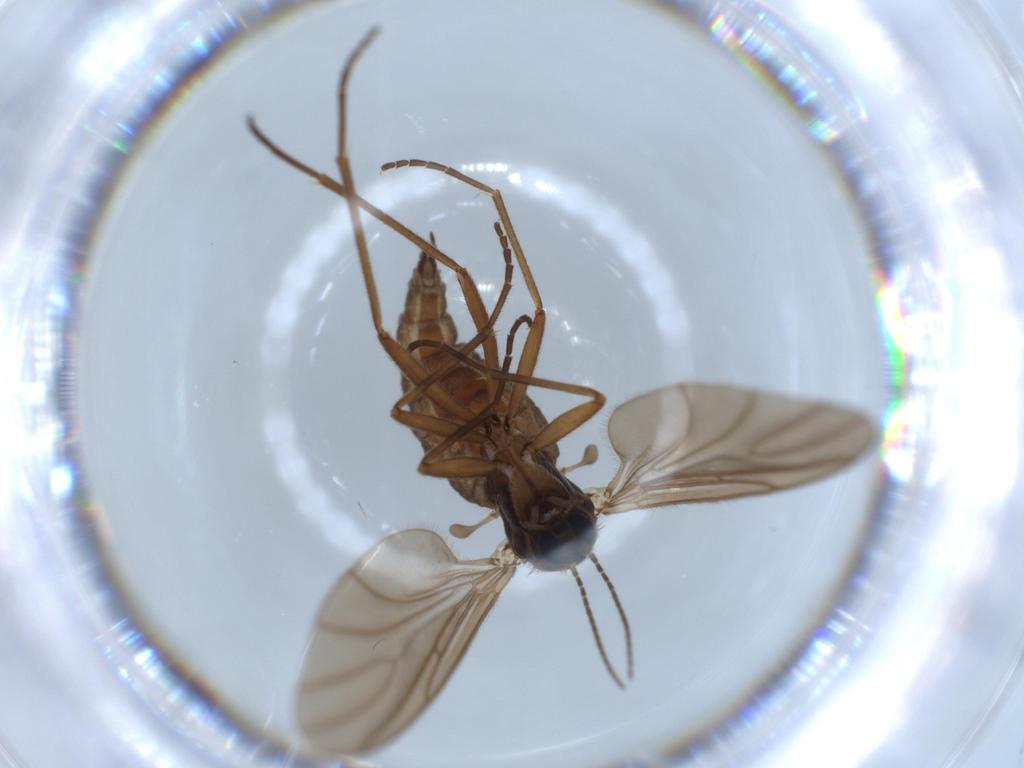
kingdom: Animalia
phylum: Arthropoda
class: Insecta
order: Diptera
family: Sciaridae
